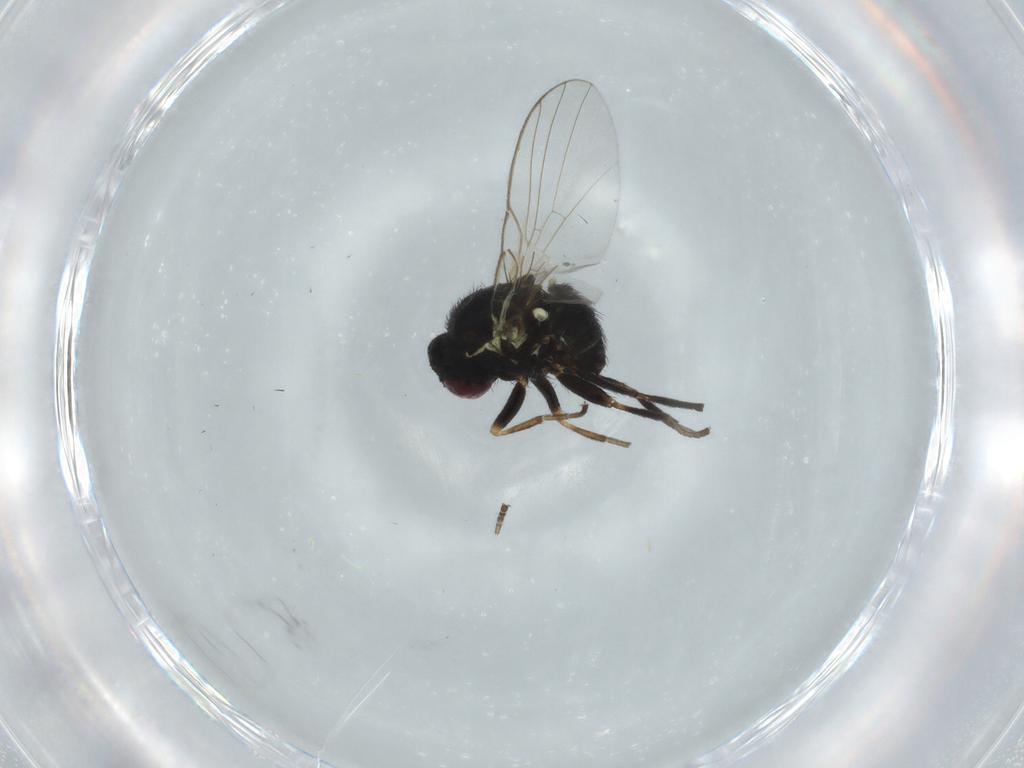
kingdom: Animalia
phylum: Arthropoda
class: Insecta
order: Diptera
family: Agromyzidae
